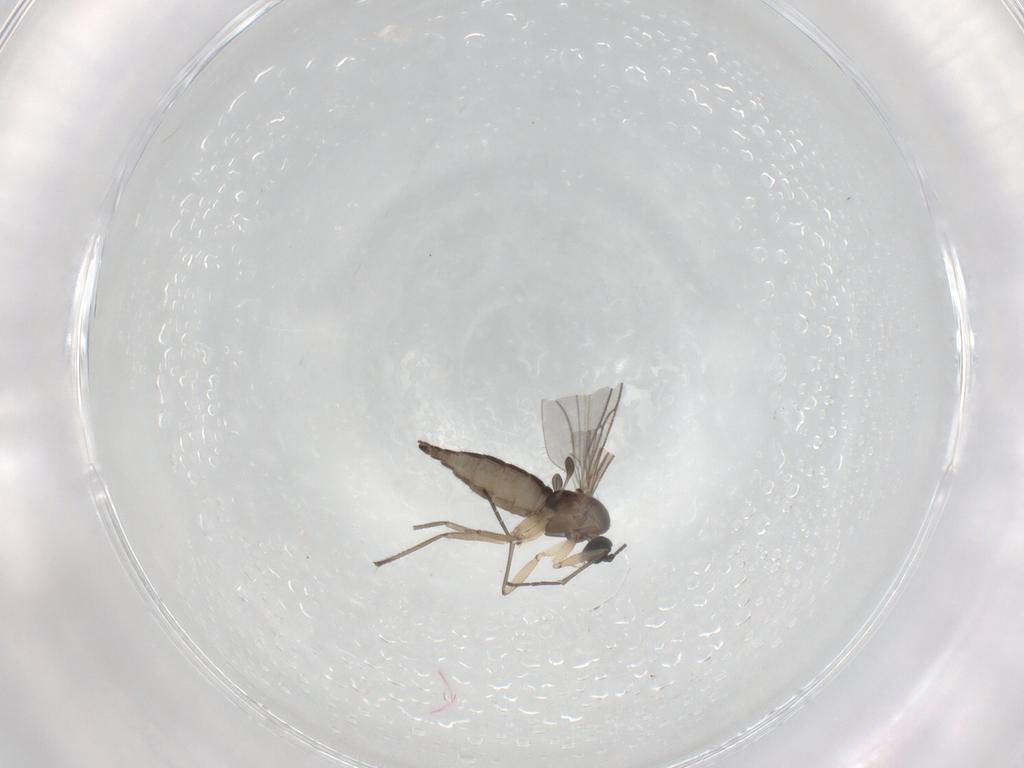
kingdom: Animalia
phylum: Arthropoda
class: Insecta
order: Diptera
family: Sciaridae
